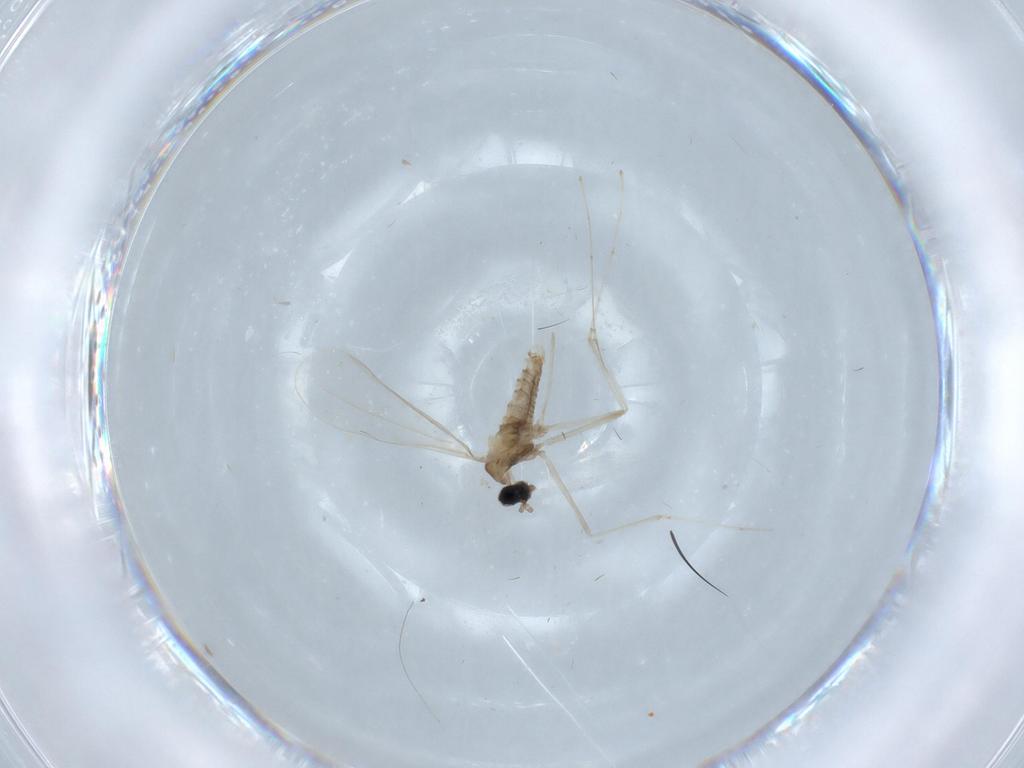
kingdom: Animalia
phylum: Arthropoda
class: Insecta
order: Diptera
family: Cecidomyiidae
